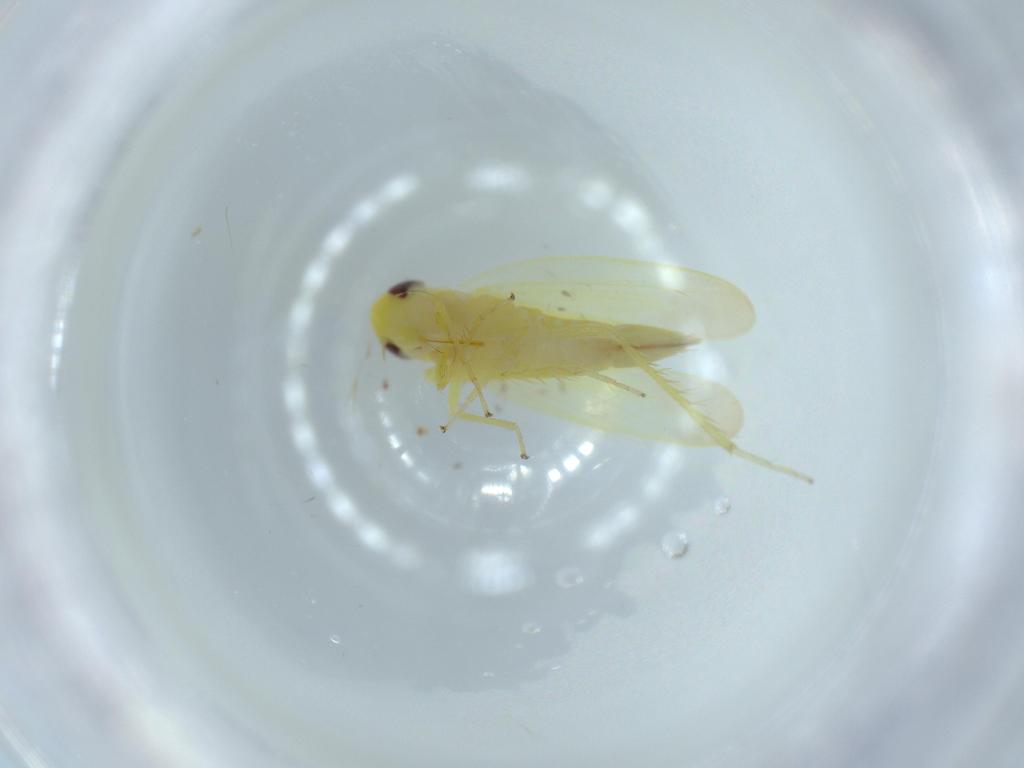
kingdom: Animalia
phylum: Arthropoda
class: Insecta
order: Hemiptera
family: Cicadellidae
